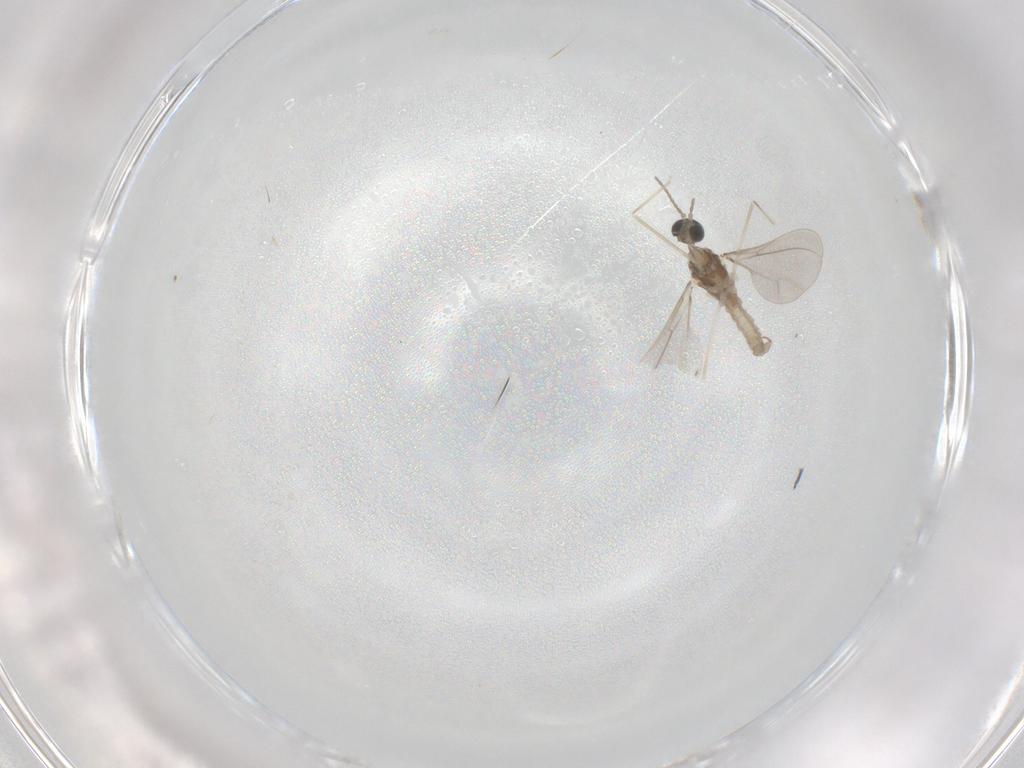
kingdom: Animalia
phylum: Arthropoda
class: Insecta
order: Diptera
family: Cecidomyiidae
